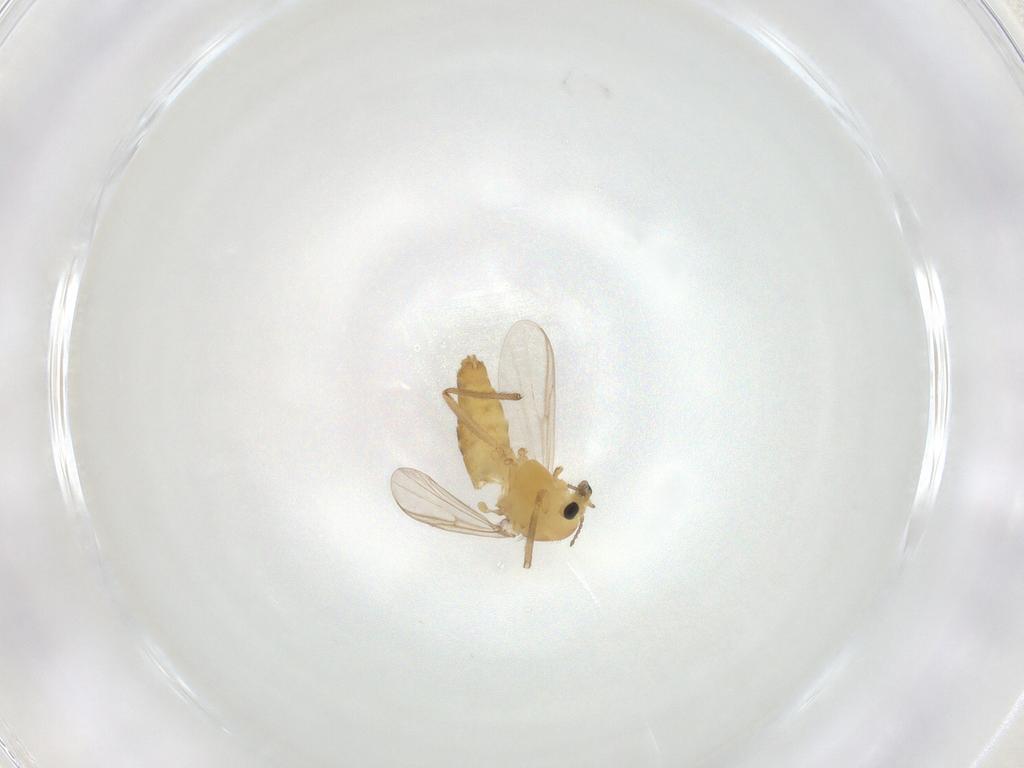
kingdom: Animalia
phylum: Arthropoda
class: Insecta
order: Diptera
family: Chironomidae
